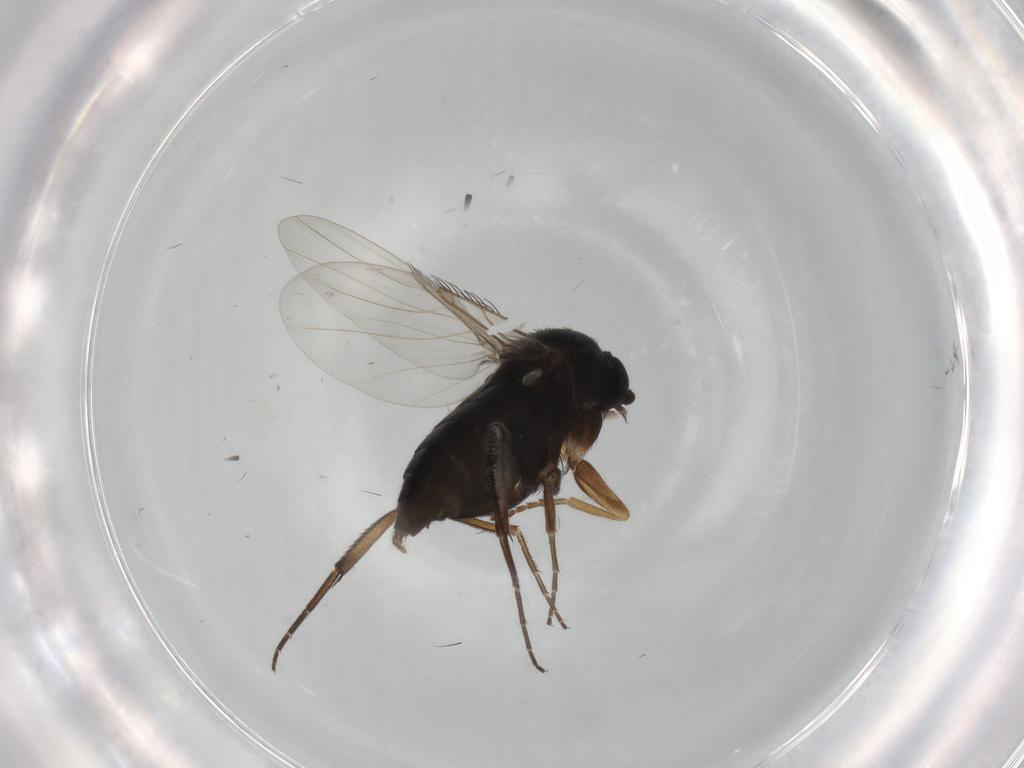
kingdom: Animalia
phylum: Arthropoda
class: Insecta
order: Diptera
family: Phoridae
